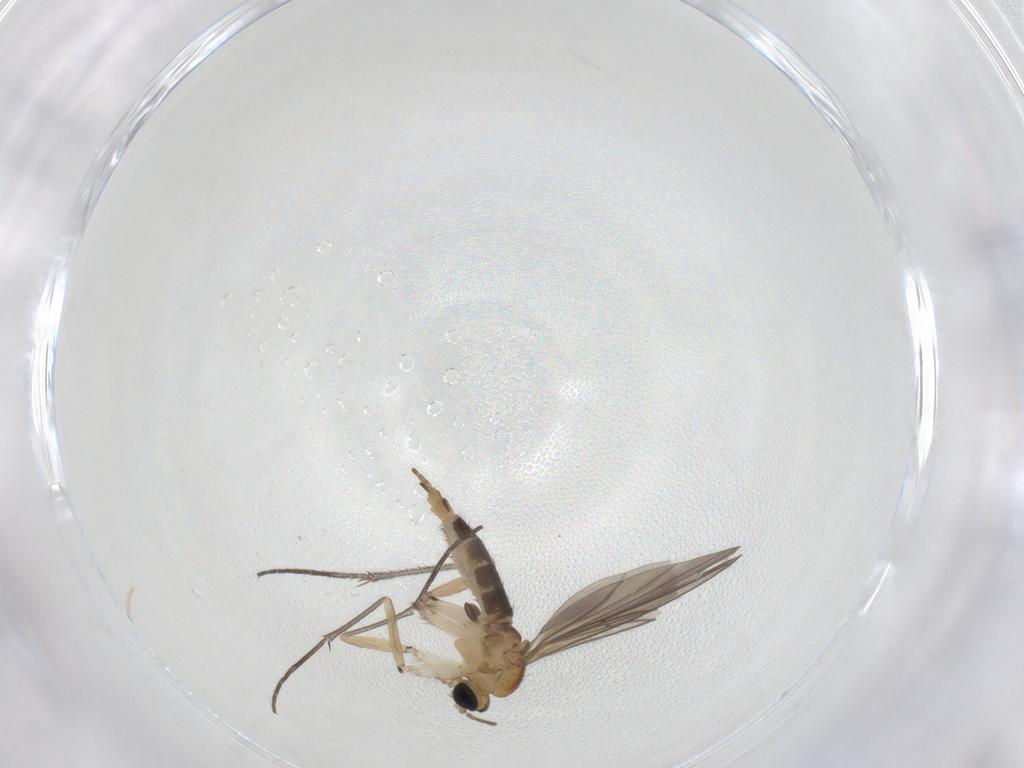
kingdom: Animalia
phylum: Arthropoda
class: Insecta
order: Diptera
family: Sciaridae
